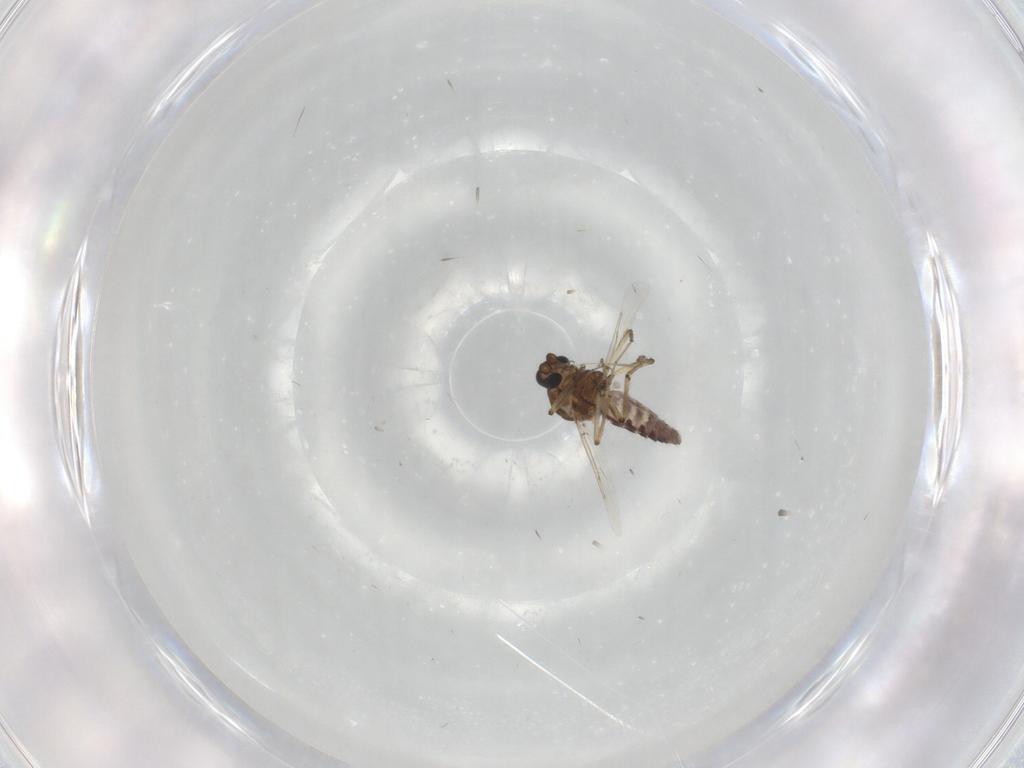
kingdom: Animalia
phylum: Arthropoda
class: Insecta
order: Diptera
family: Ceratopogonidae
